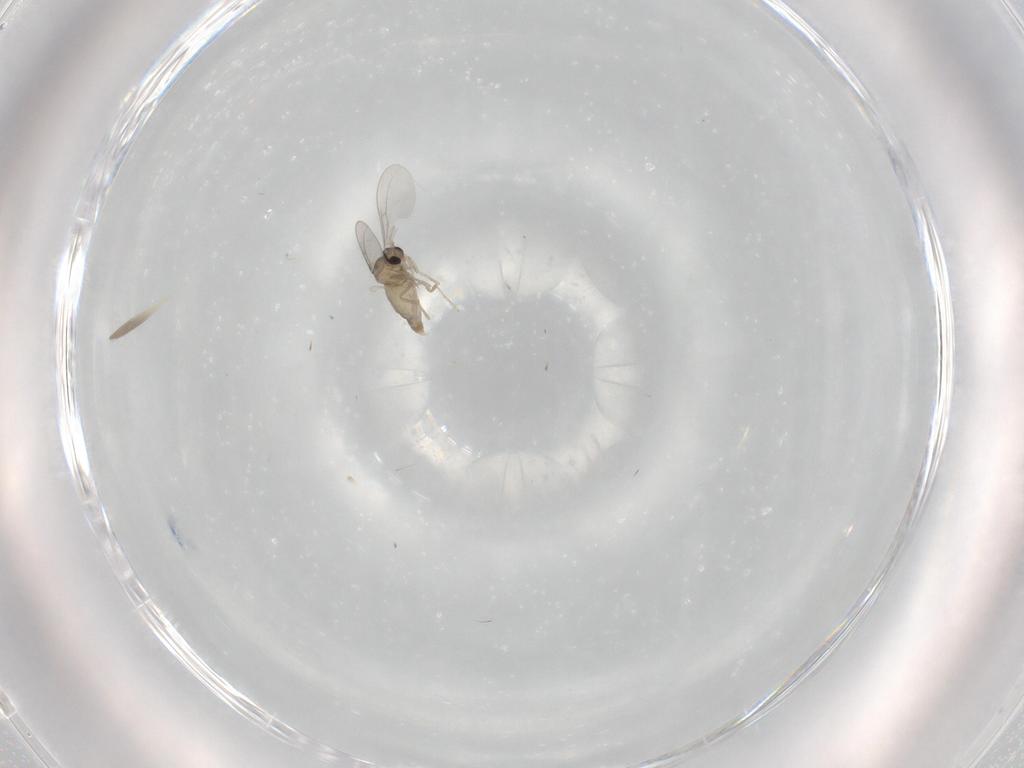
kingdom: Animalia
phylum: Arthropoda
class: Insecta
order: Diptera
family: Cecidomyiidae
